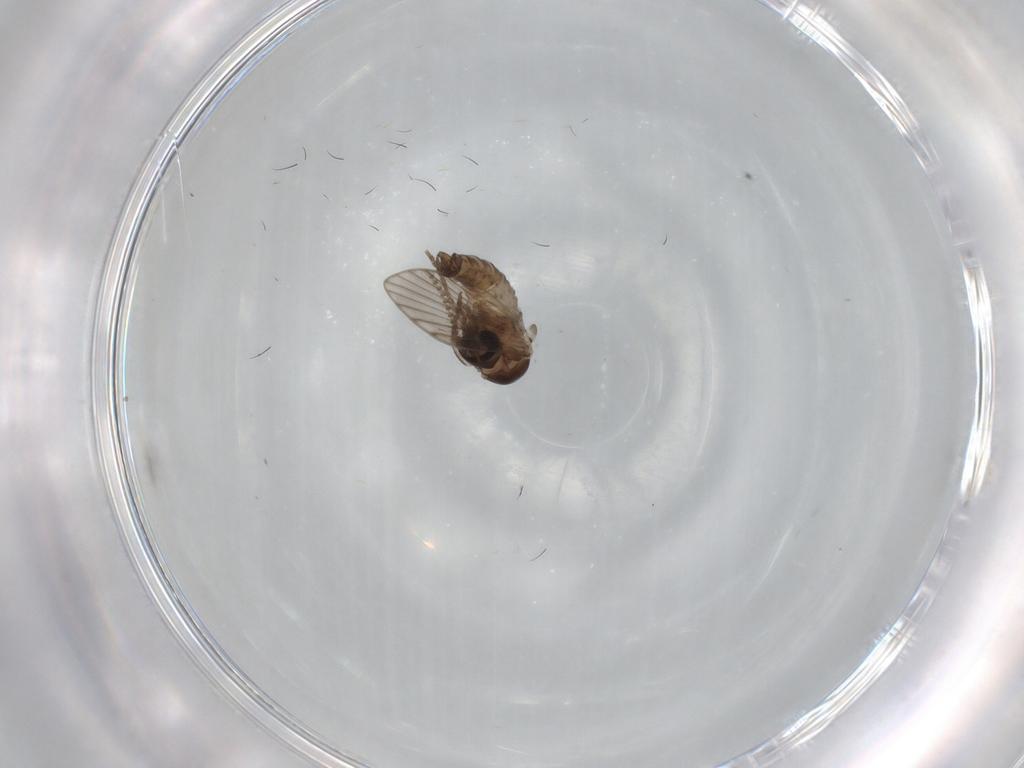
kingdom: Animalia
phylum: Arthropoda
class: Insecta
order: Diptera
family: Psychodidae
